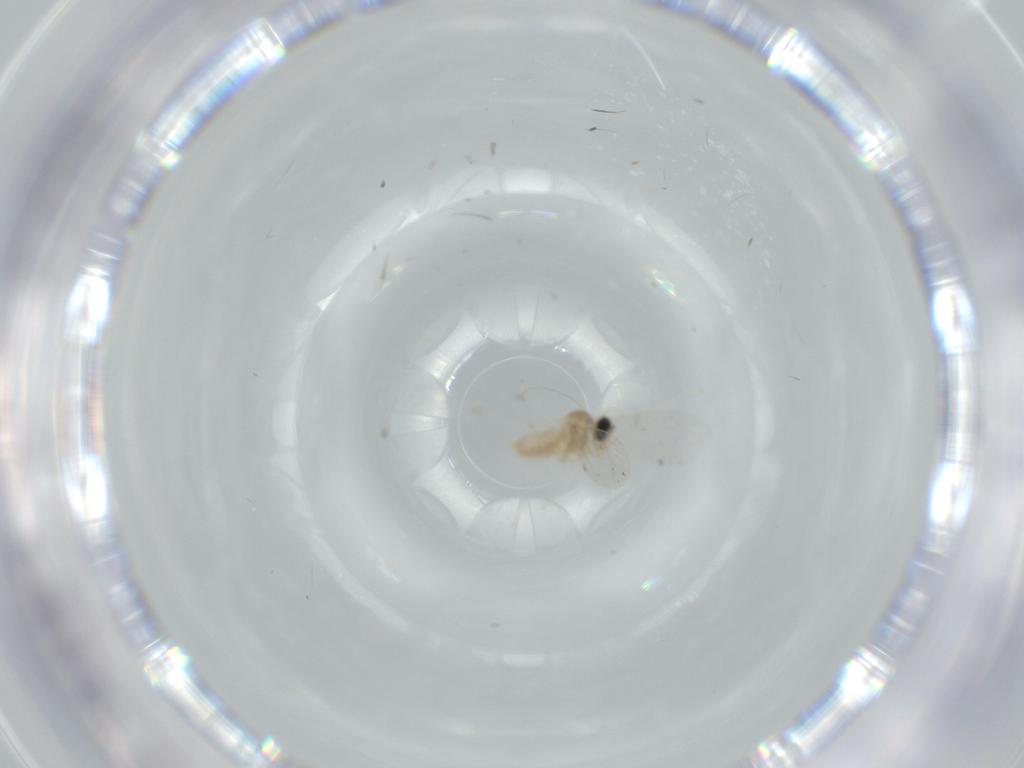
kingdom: Animalia
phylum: Arthropoda
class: Insecta
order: Diptera
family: Cecidomyiidae
